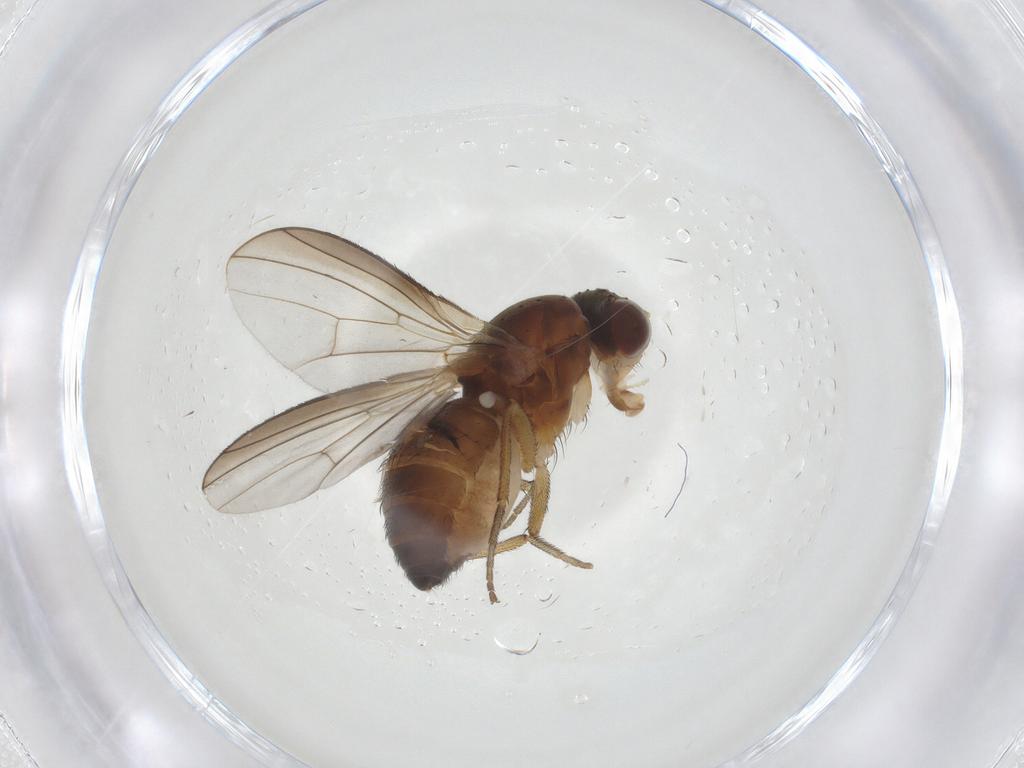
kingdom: Animalia
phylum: Arthropoda
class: Insecta
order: Diptera
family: Heleomyzidae
